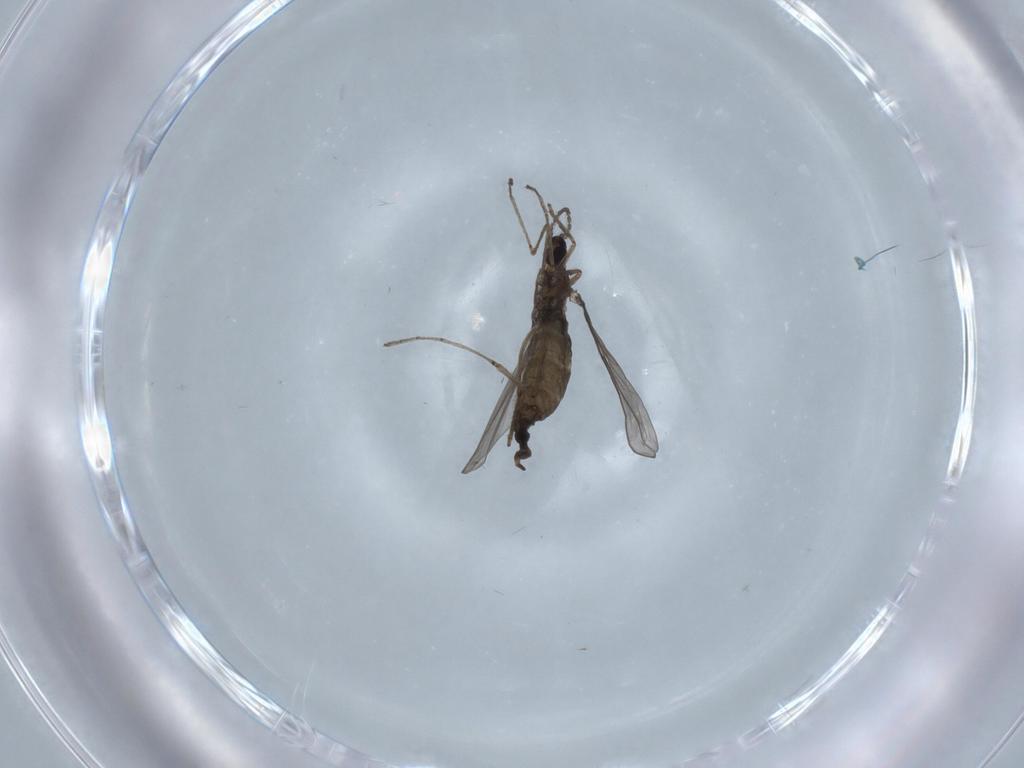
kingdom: Animalia
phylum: Arthropoda
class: Insecta
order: Diptera
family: Cecidomyiidae
